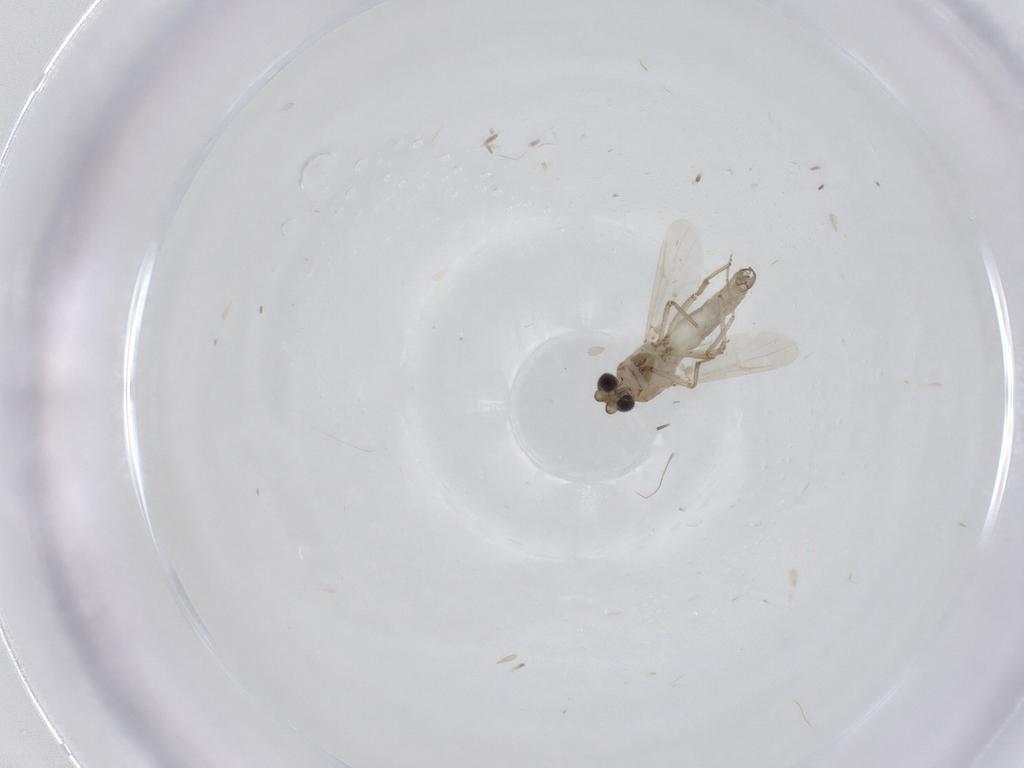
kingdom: Animalia
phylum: Arthropoda
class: Insecta
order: Diptera
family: Ceratopogonidae
